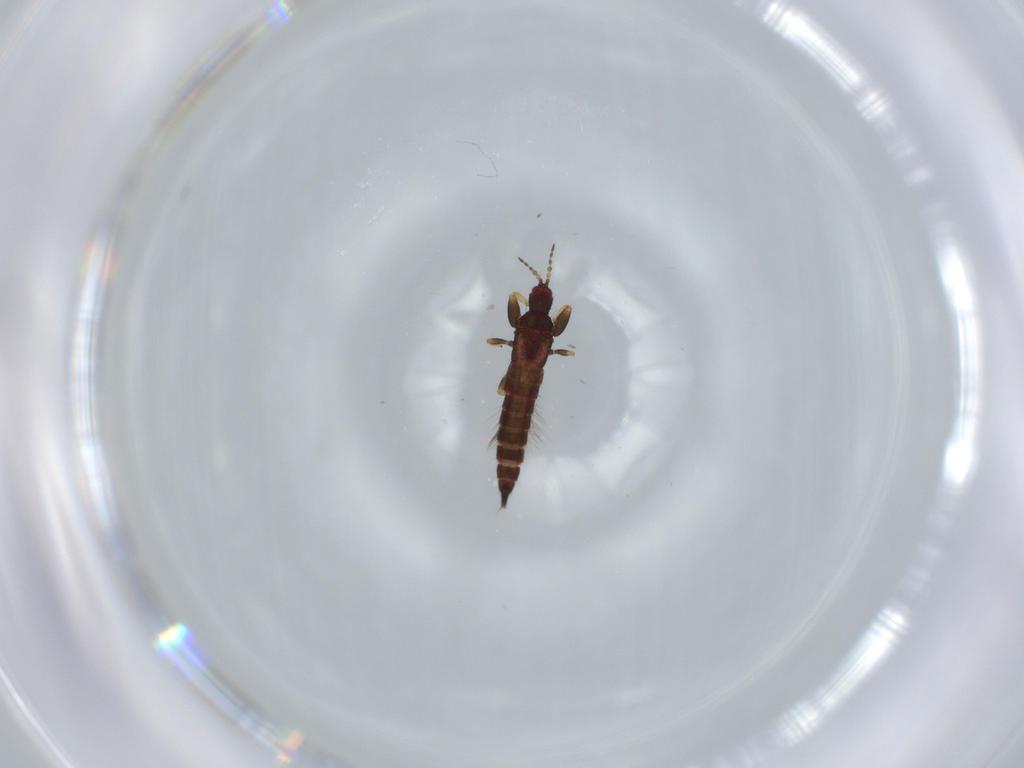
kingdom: Animalia
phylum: Arthropoda
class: Insecta
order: Thysanoptera
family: Phlaeothripidae
